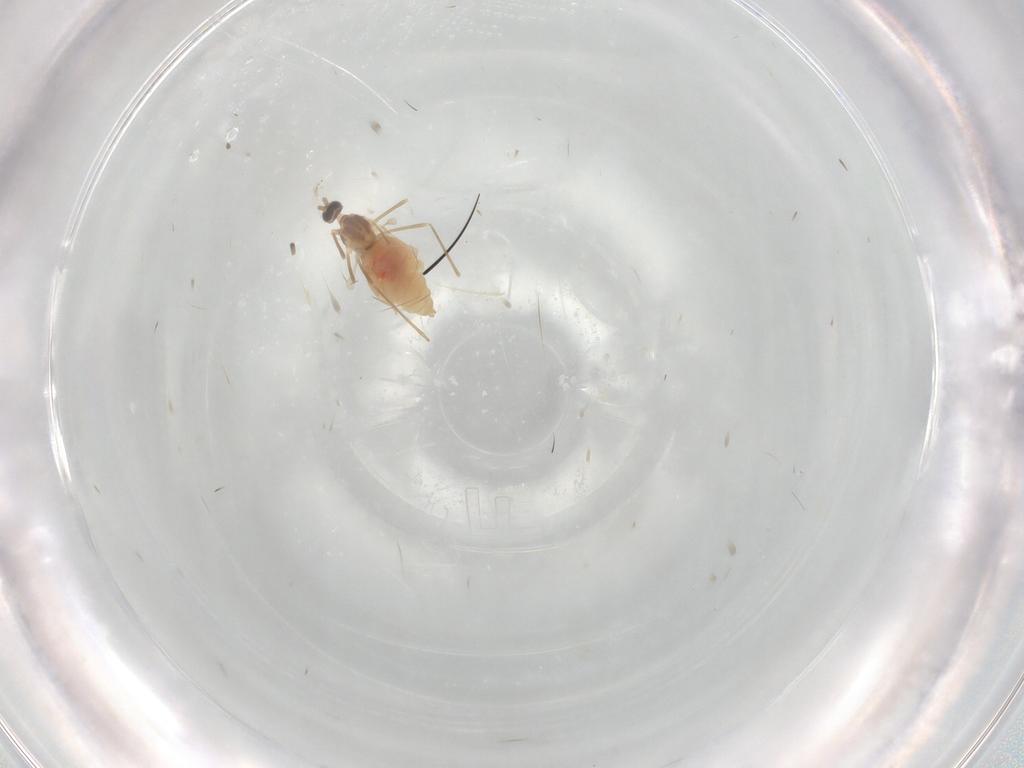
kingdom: Animalia
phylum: Arthropoda
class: Insecta
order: Diptera
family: Cecidomyiidae
